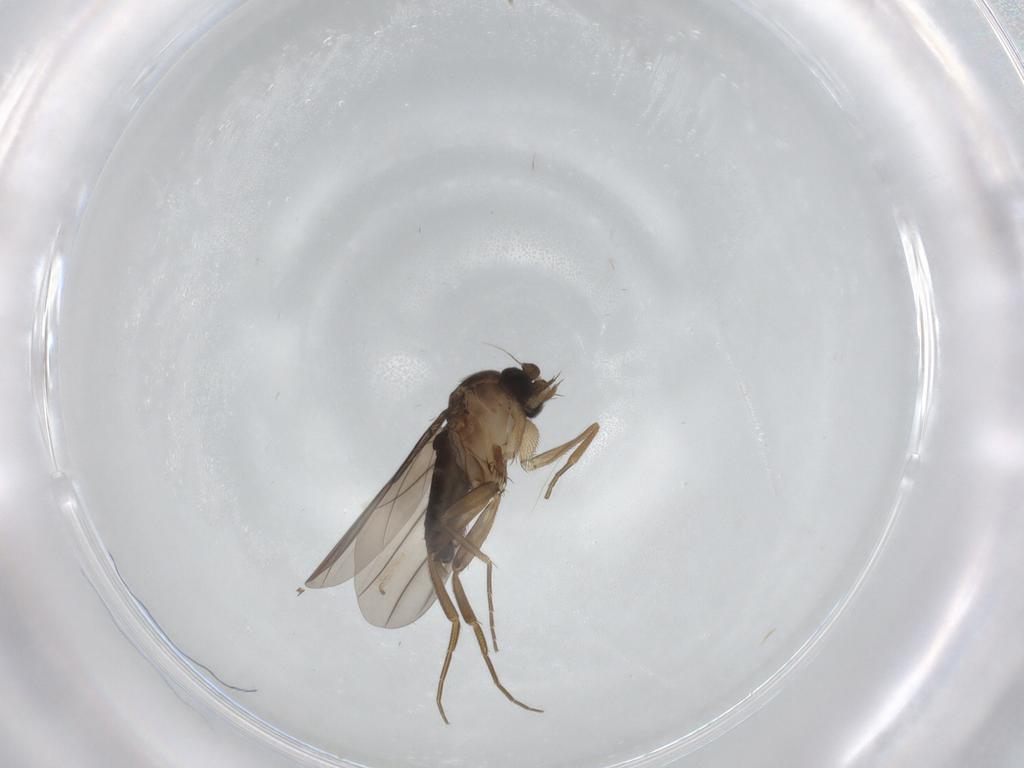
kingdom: Animalia
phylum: Arthropoda
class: Insecta
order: Diptera
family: Phoridae
